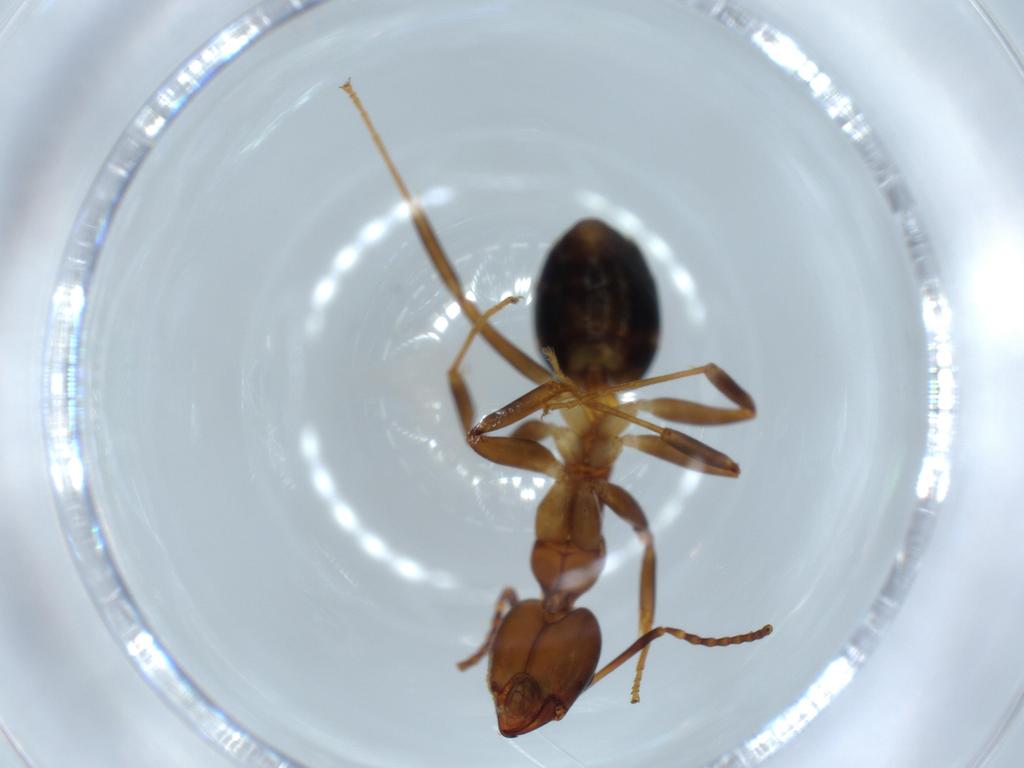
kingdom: Animalia
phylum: Arthropoda
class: Insecta
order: Hymenoptera
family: Formicidae
